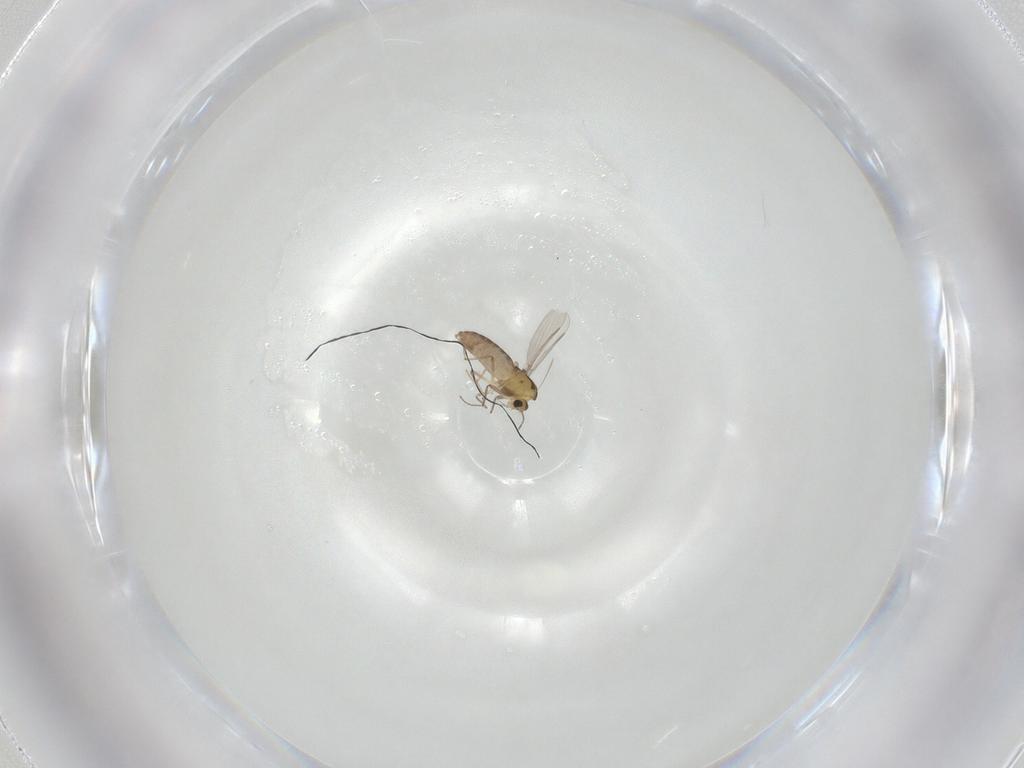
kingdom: Animalia
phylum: Arthropoda
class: Insecta
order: Diptera
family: Chironomidae
